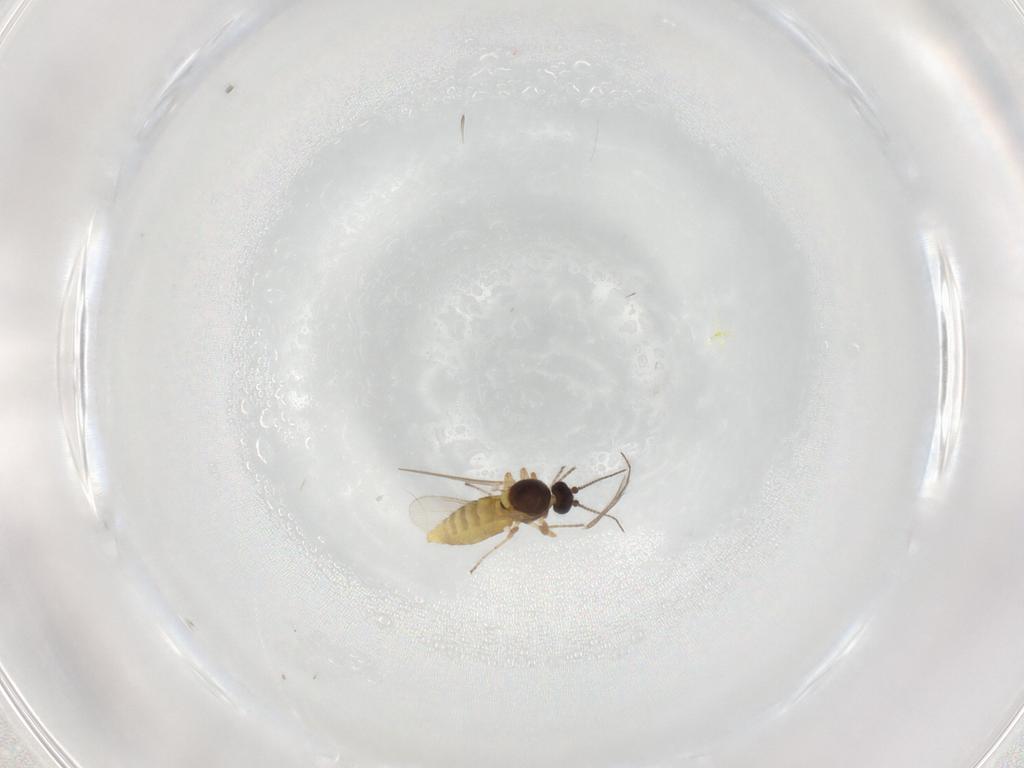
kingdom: Animalia
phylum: Arthropoda
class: Insecta
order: Diptera
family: Ceratopogonidae
